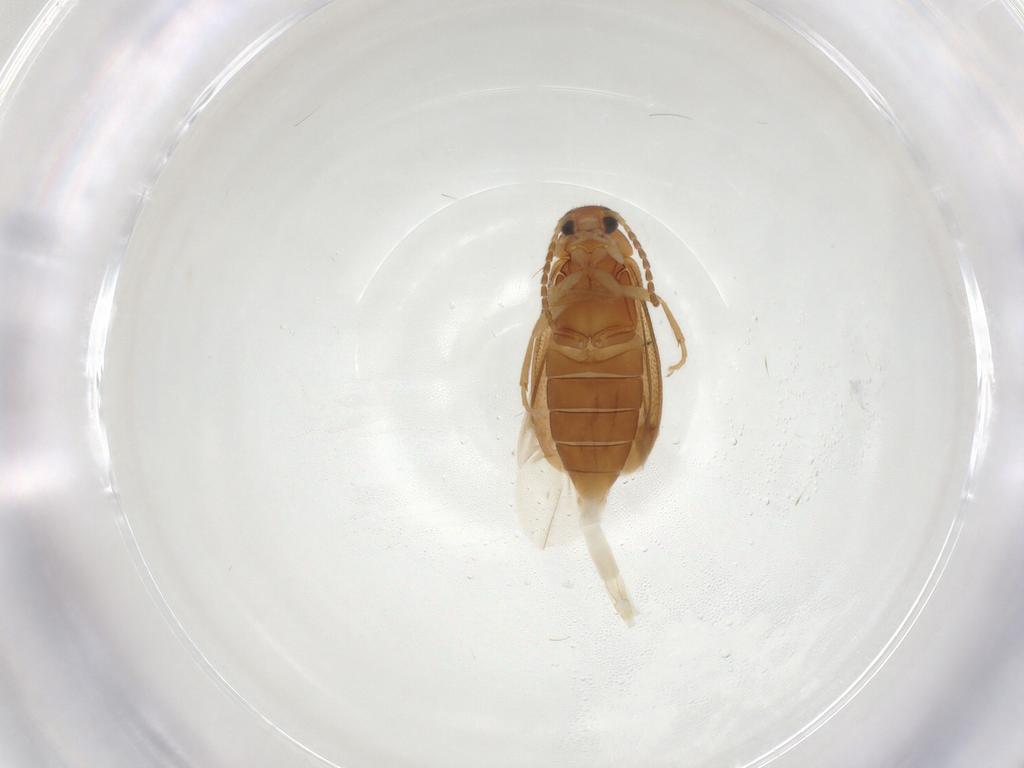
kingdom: Animalia
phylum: Arthropoda
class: Insecta
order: Coleoptera
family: Scraptiidae
